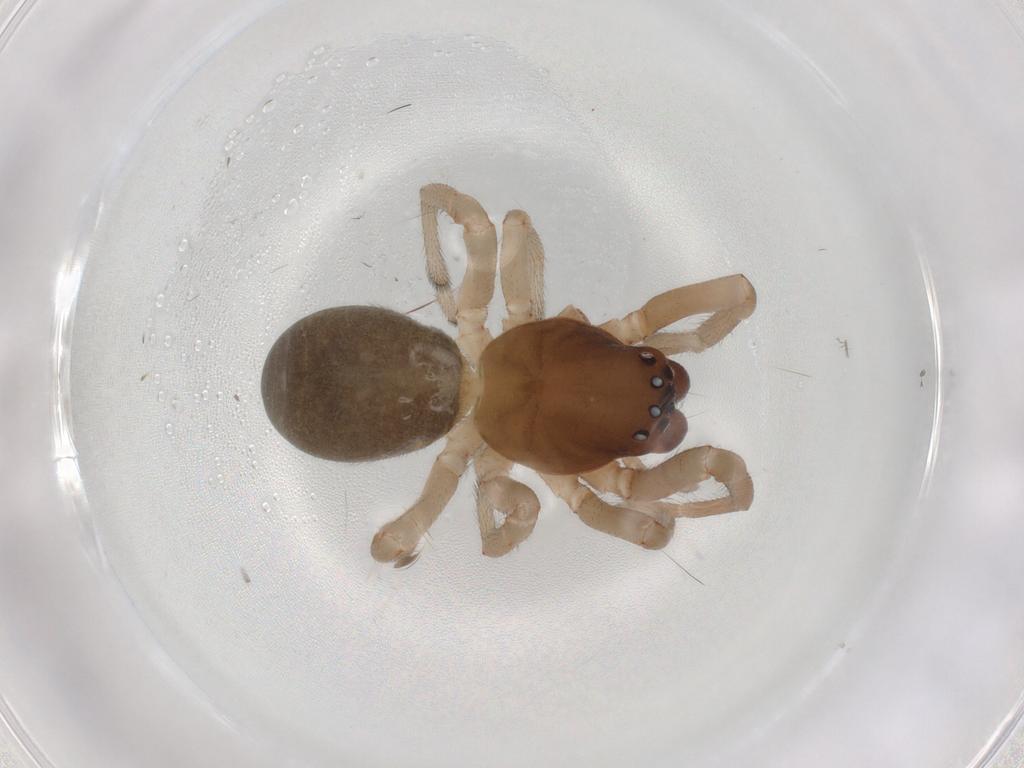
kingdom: Animalia
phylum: Arthropoda
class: Arachnida
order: Araneae
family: Trachelidae
